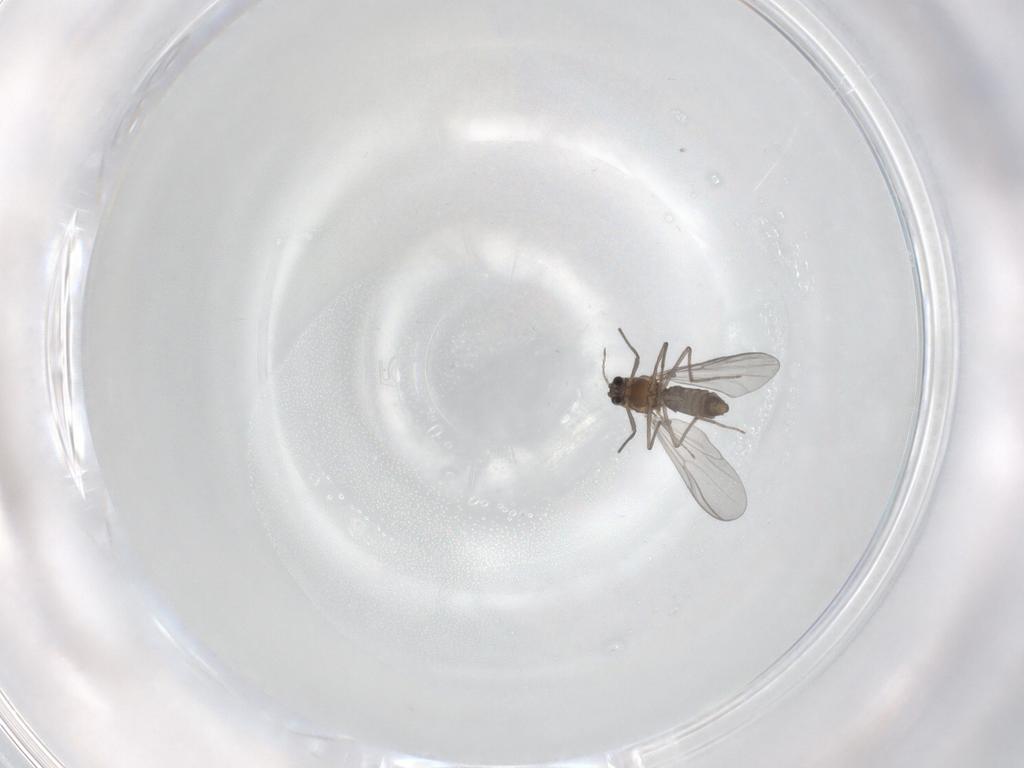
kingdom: Animalia
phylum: Arthropoda
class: Insecta
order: Diptera
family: Chironomidae
